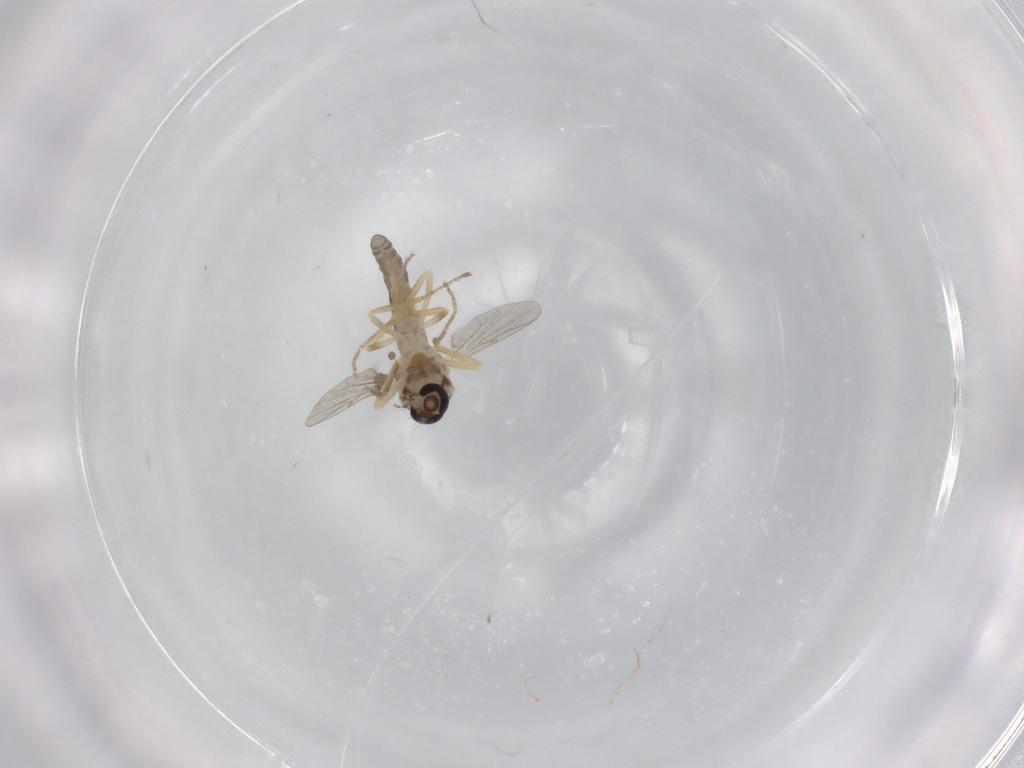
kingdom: Animalia
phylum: Arthropoda
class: Insecta
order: Diptera
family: Ceratopogonidae
